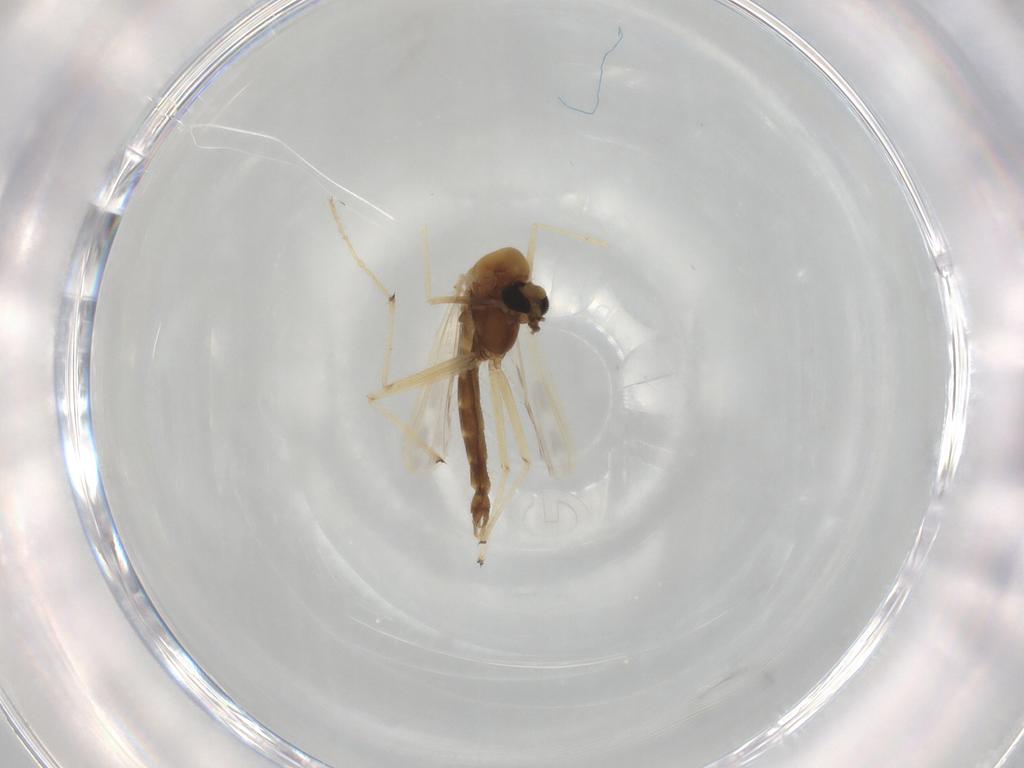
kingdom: Animalia
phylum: Arthropoda
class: Insecta
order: Diptera
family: Chironomidae
